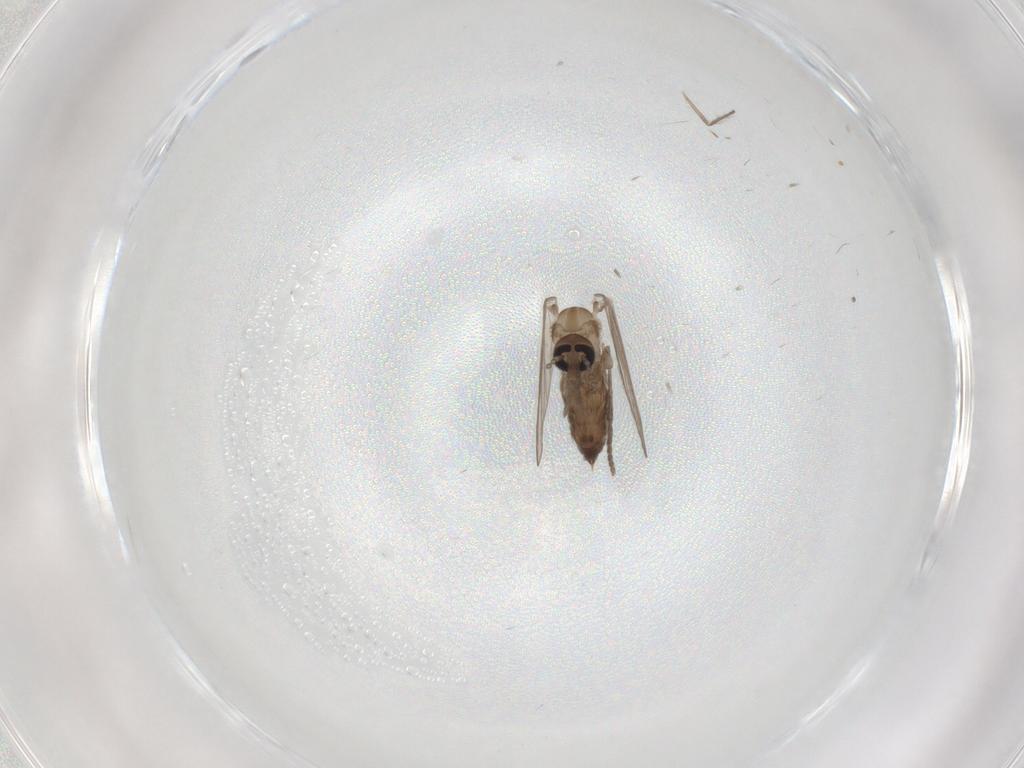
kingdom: Animalia
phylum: Arthropoda
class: Insecta
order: Diptera
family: Psychodidae
